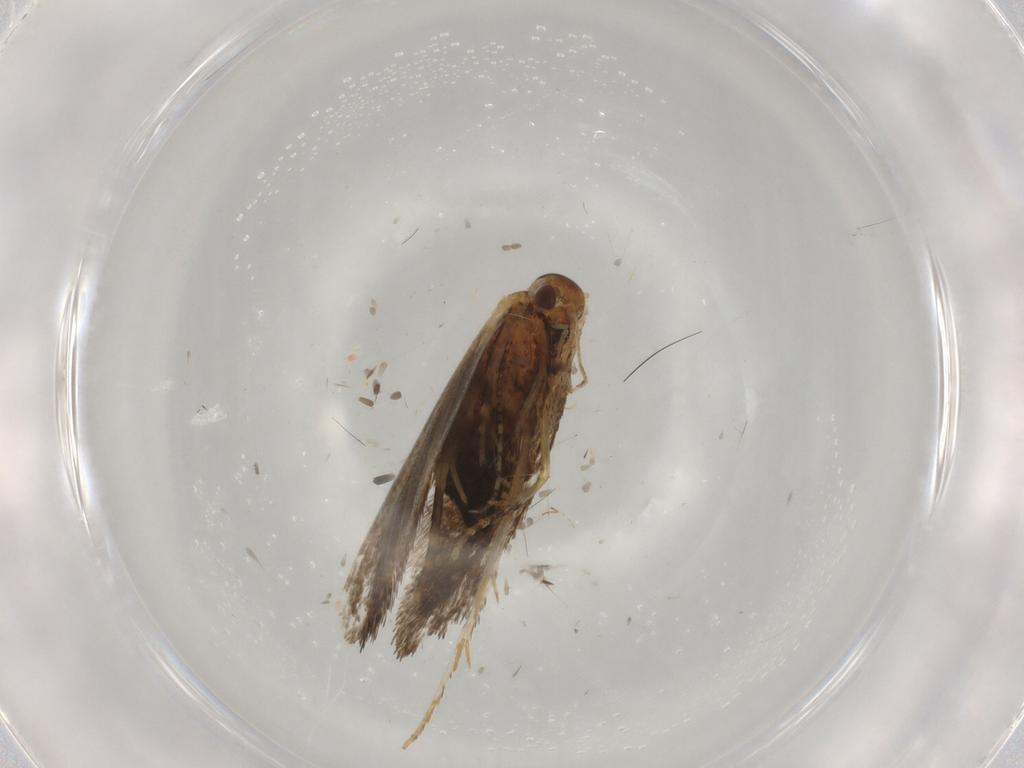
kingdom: Animalia
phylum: Arthropoda
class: Insecta
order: Lepidoptera
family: Oecophoridae
